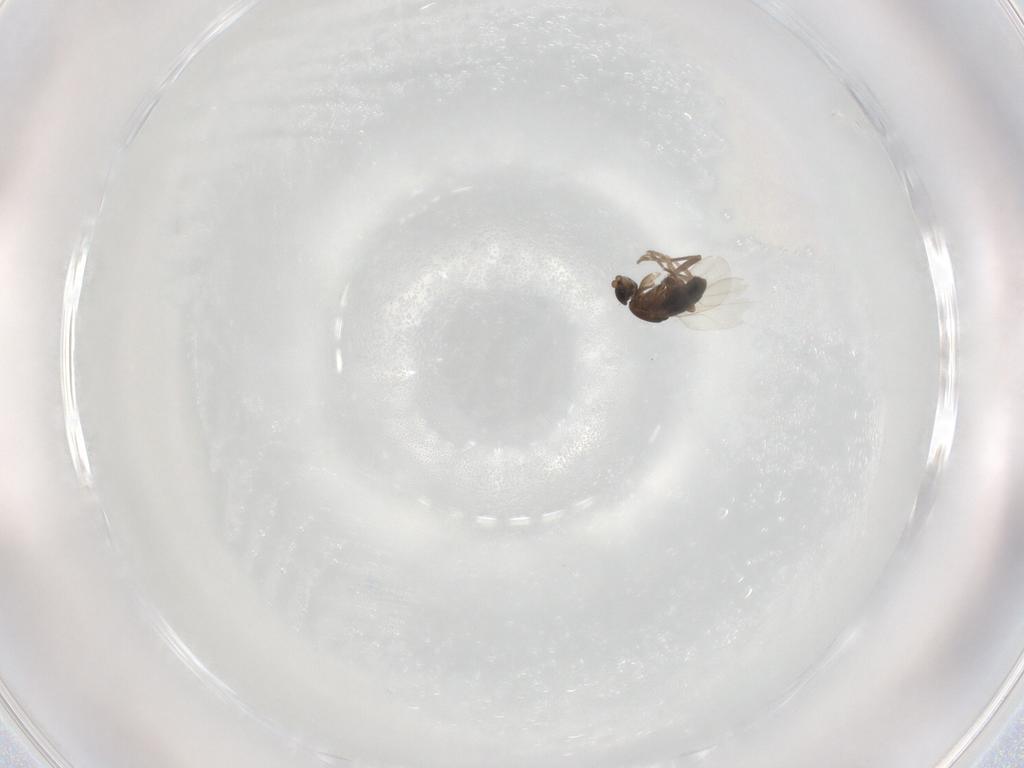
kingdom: Animalia
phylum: Arthropoda
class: Insecta
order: Diptera
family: Phoridae
